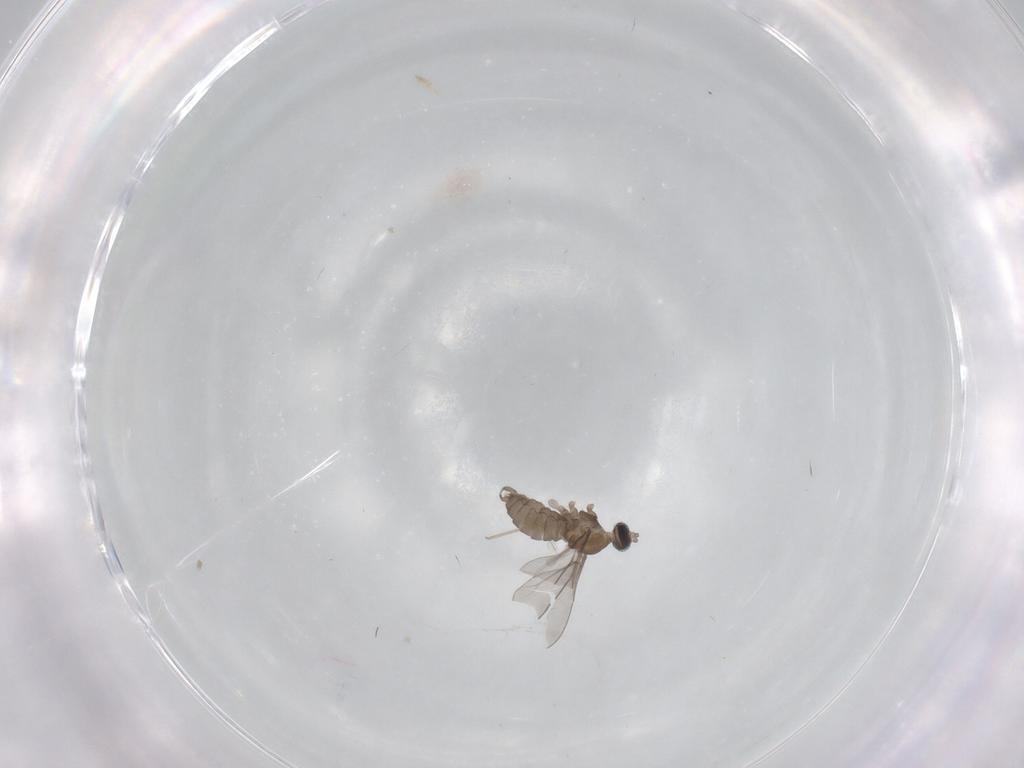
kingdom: Animalia
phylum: Arthropoda
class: Insecta
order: Diptera
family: Cecidomyiidae
